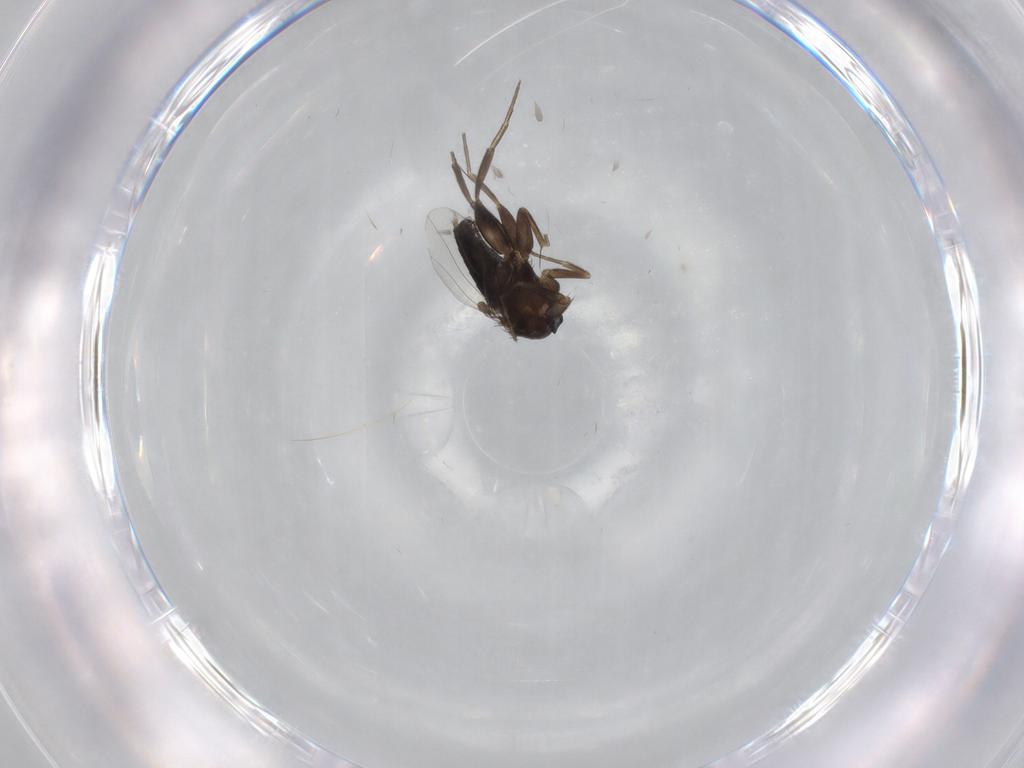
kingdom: Animalia
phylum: Arthropoda
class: Insecta
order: Diptera
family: Phoridae
